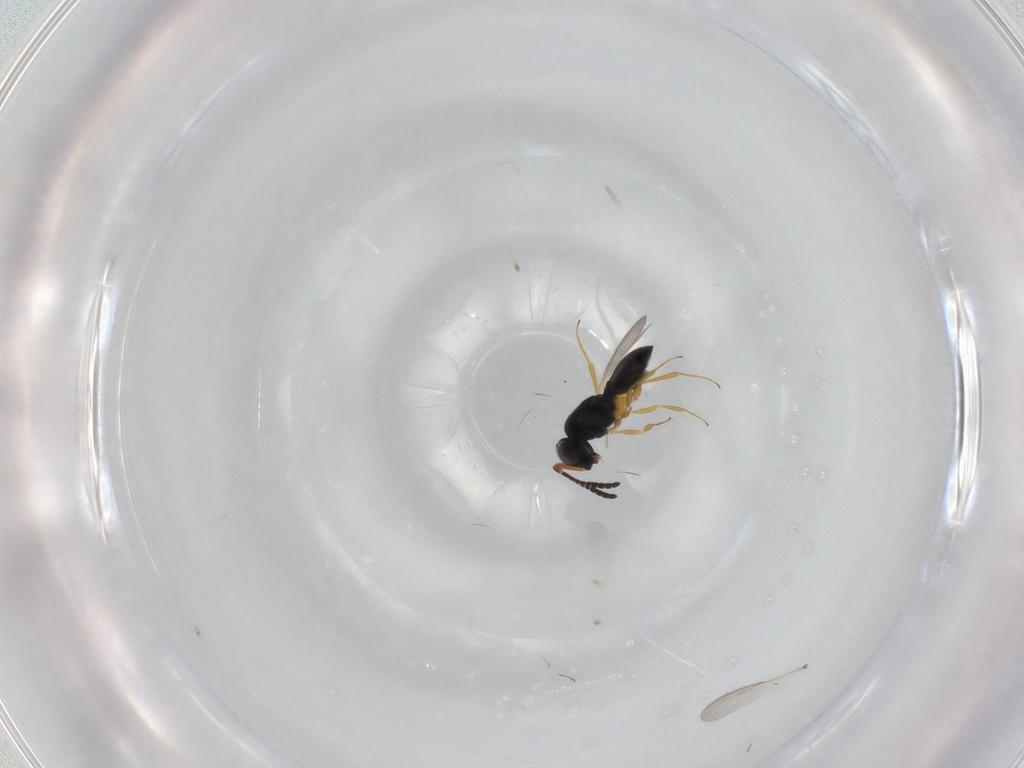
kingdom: Animalia
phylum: Arthropoda
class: Insecta
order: Hymenoptera
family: Scelionidae
